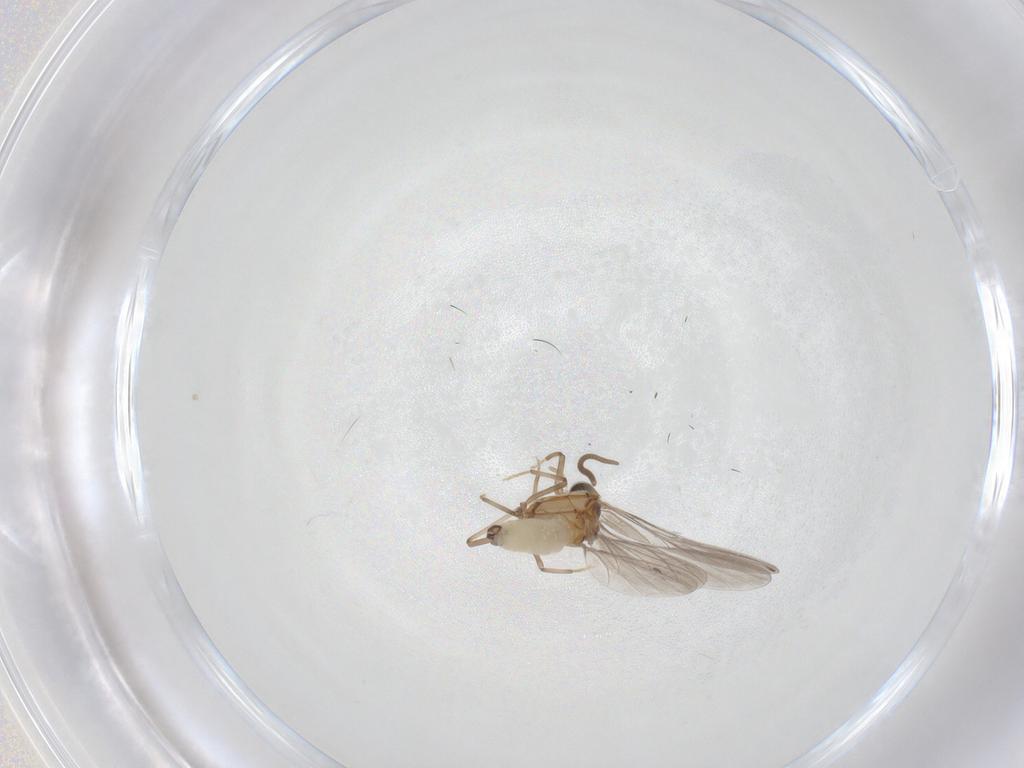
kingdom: Animalia
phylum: Arthropoda
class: Insecta
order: Neuroptera
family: Coniopterygidae
